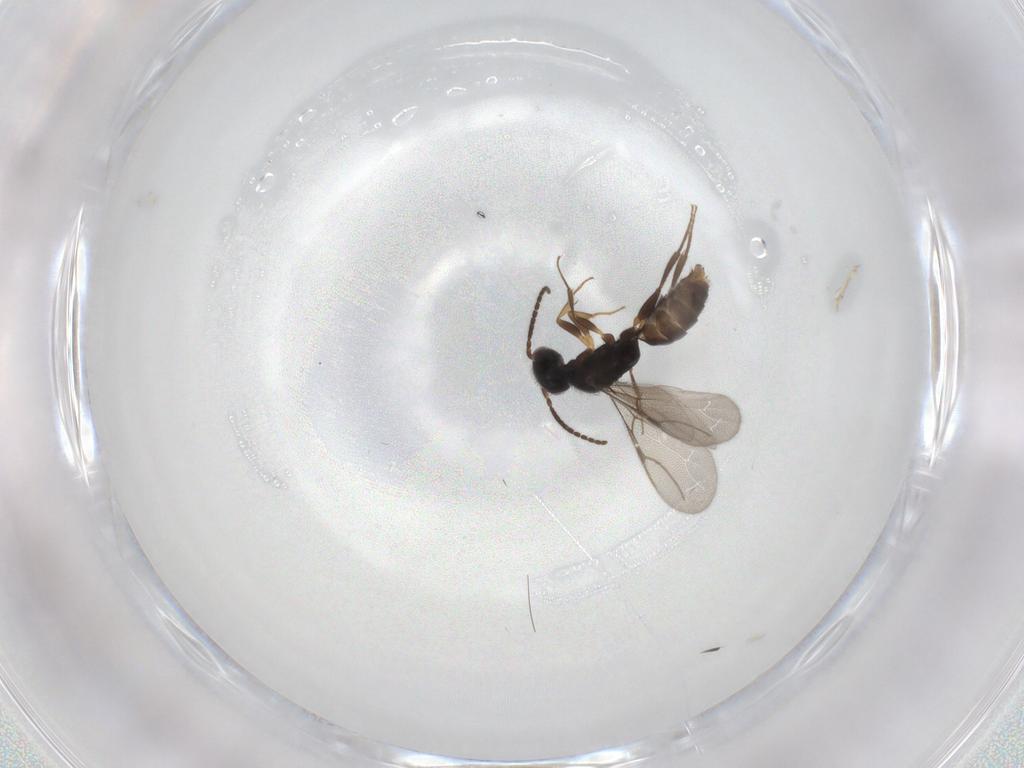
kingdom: Animalia
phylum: Arthropoda
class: Insecta
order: Hymenoptera
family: Bethylidae
